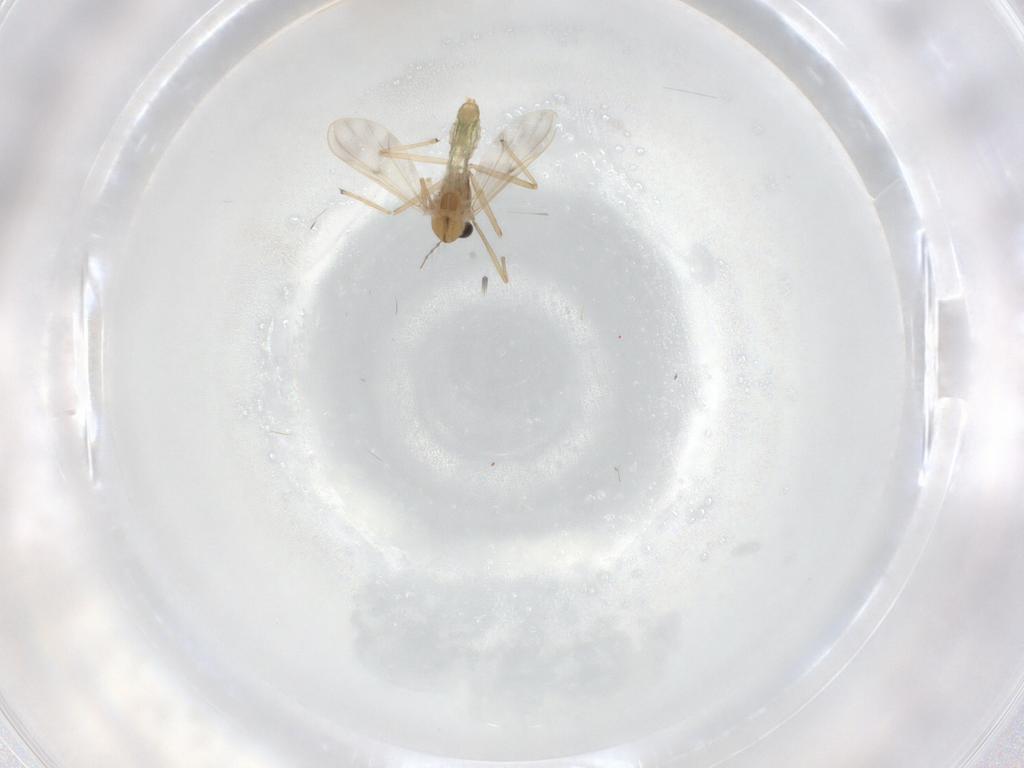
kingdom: Animalia
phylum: Arthropoda
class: Insecta
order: Diptera
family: Chironomidae
